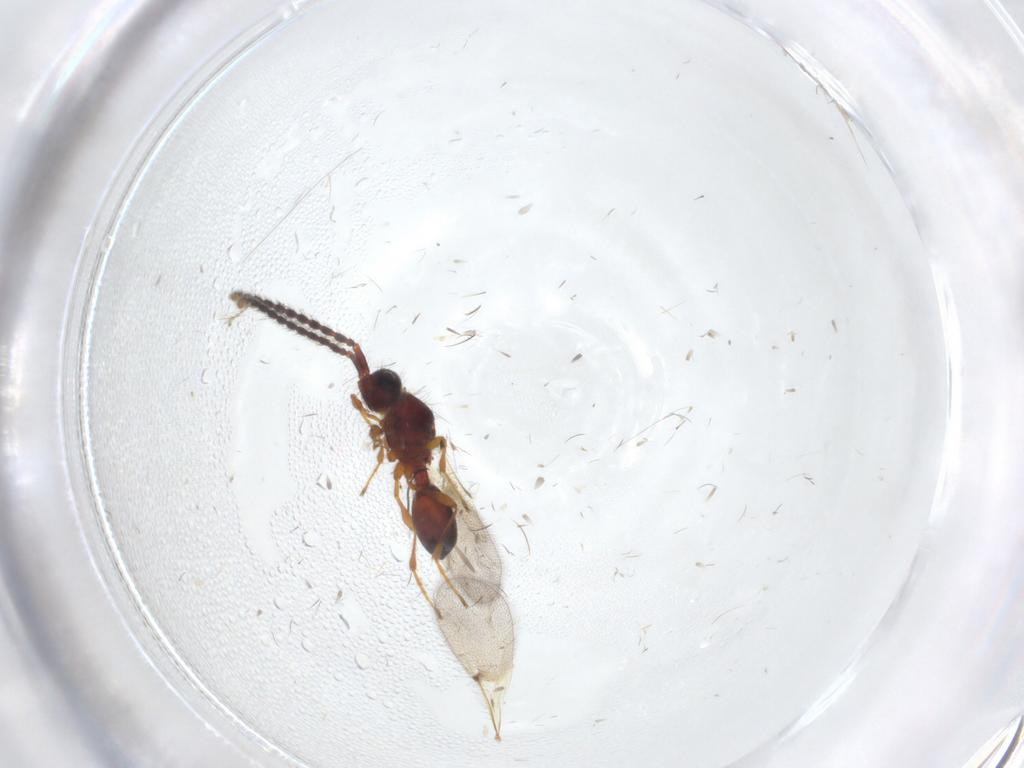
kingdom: Animalia
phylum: Arthropoda
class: Insecta
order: Hymenoptera
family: Diapriidae
